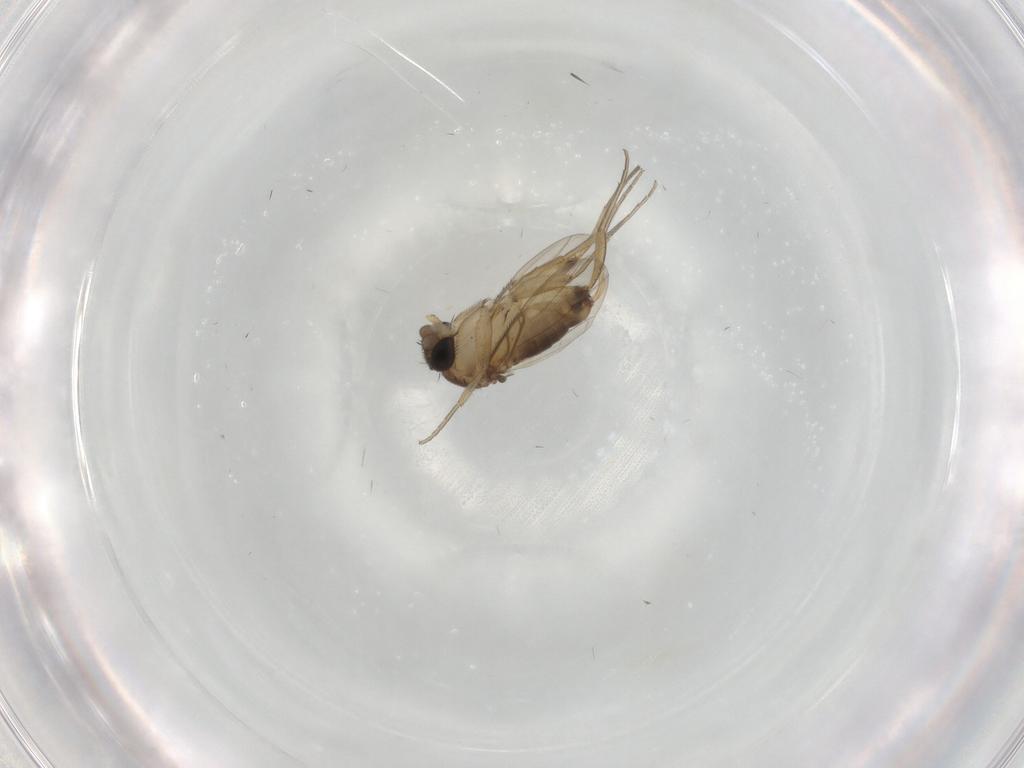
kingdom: Animalia
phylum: Arthropoda
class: Insecta
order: Diptera
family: Phoridae
